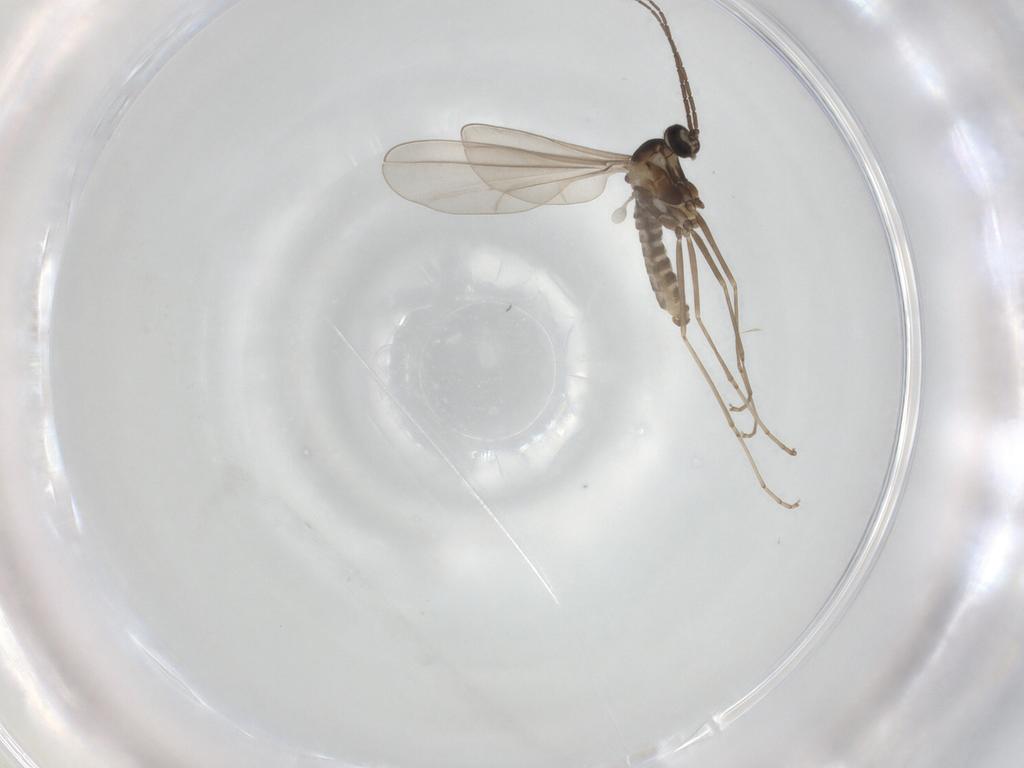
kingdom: Animalia
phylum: Arthropoda
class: Insecta
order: Diptera
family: Cecidomyiidae
